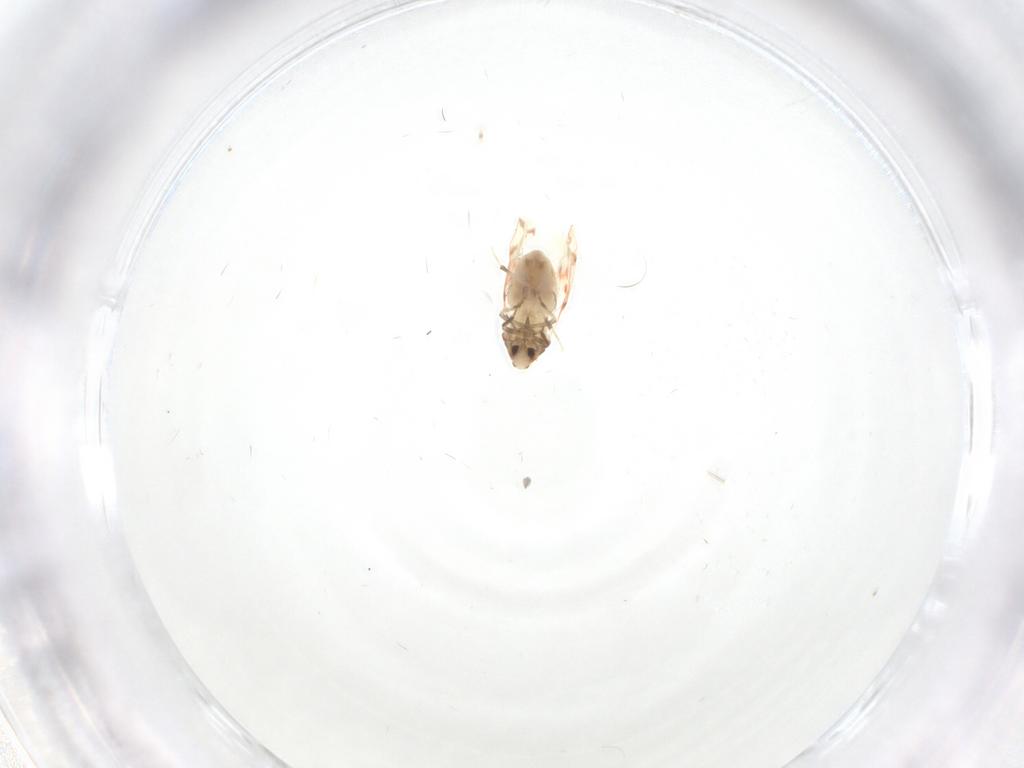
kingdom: Animalia
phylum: Arthropoda
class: Insecta
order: Hemiptera
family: Aleyrodidae
